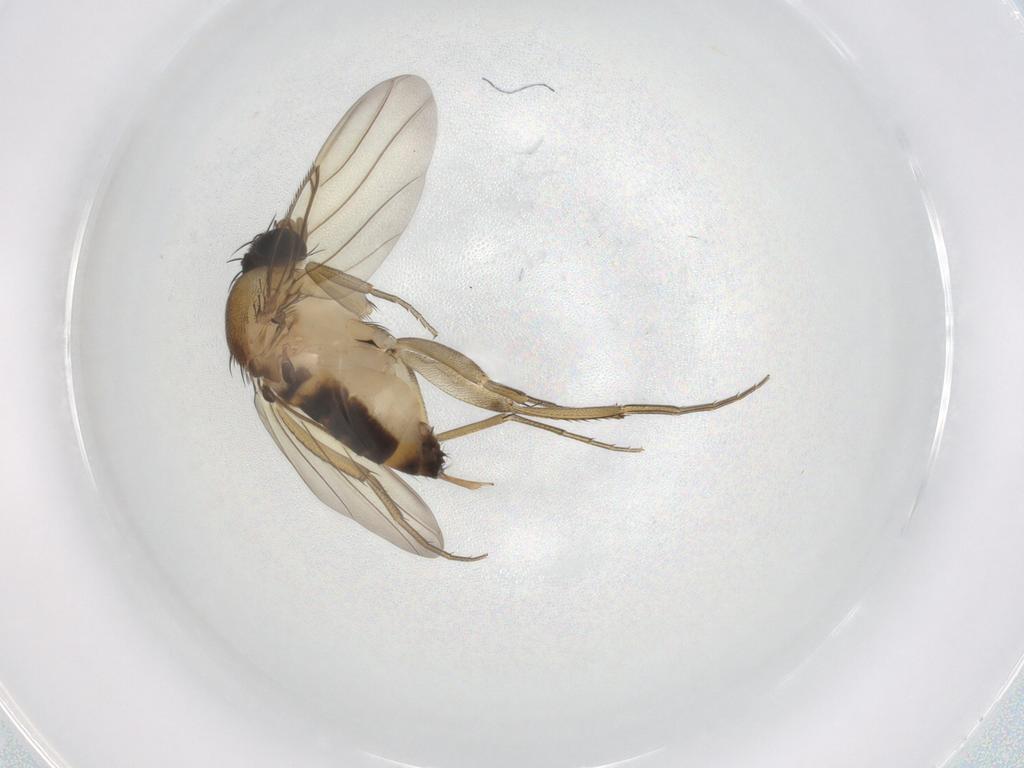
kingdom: Animalia
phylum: Arthropoda
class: Insecta
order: Diptera
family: Phoridae
